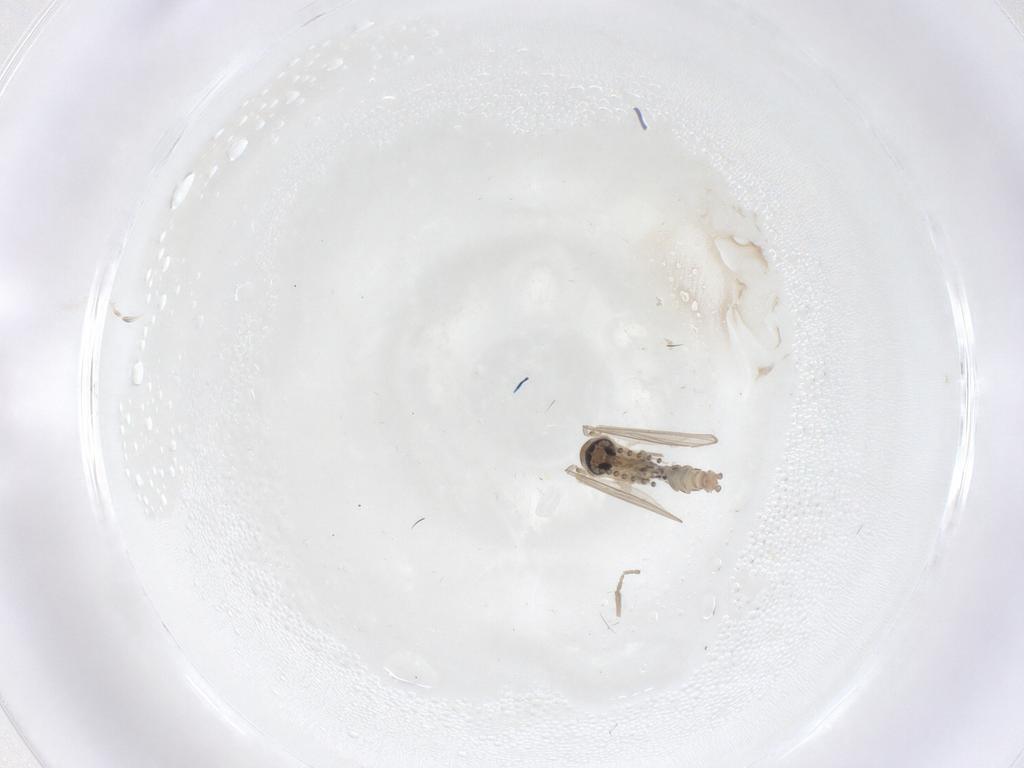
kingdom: Animalia
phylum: Arthropoda
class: Insecta
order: Diptera
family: Psychodidae
